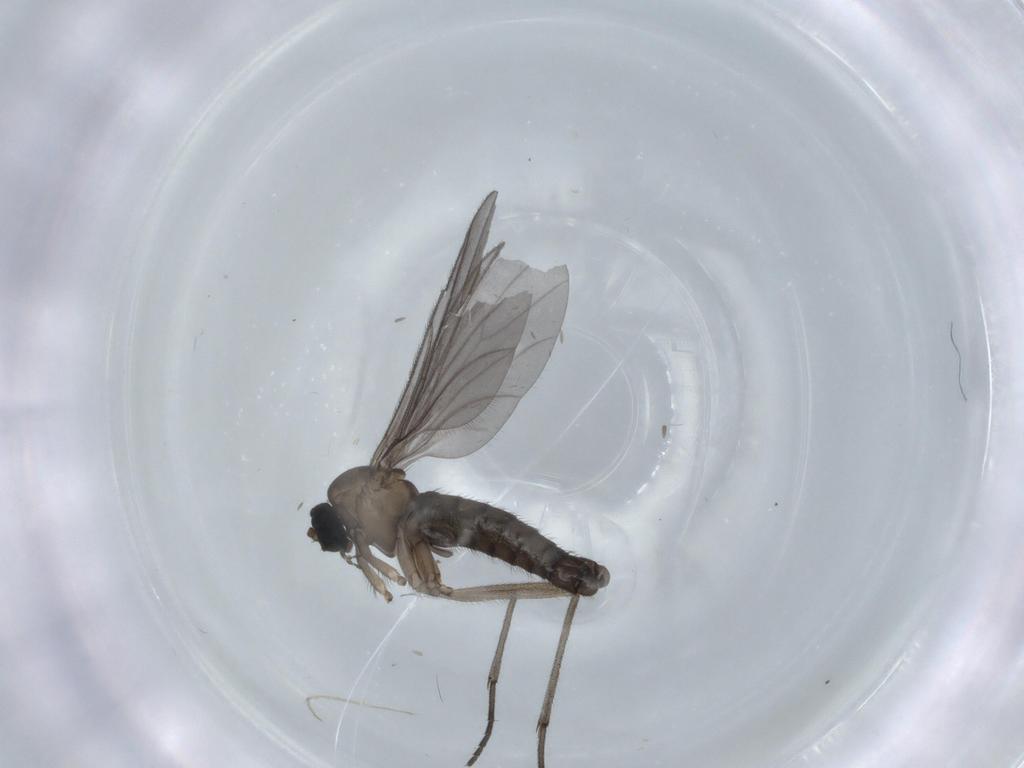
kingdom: Animalia
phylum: Arthropoda
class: Insecta
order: Diptera
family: Sciaridae
